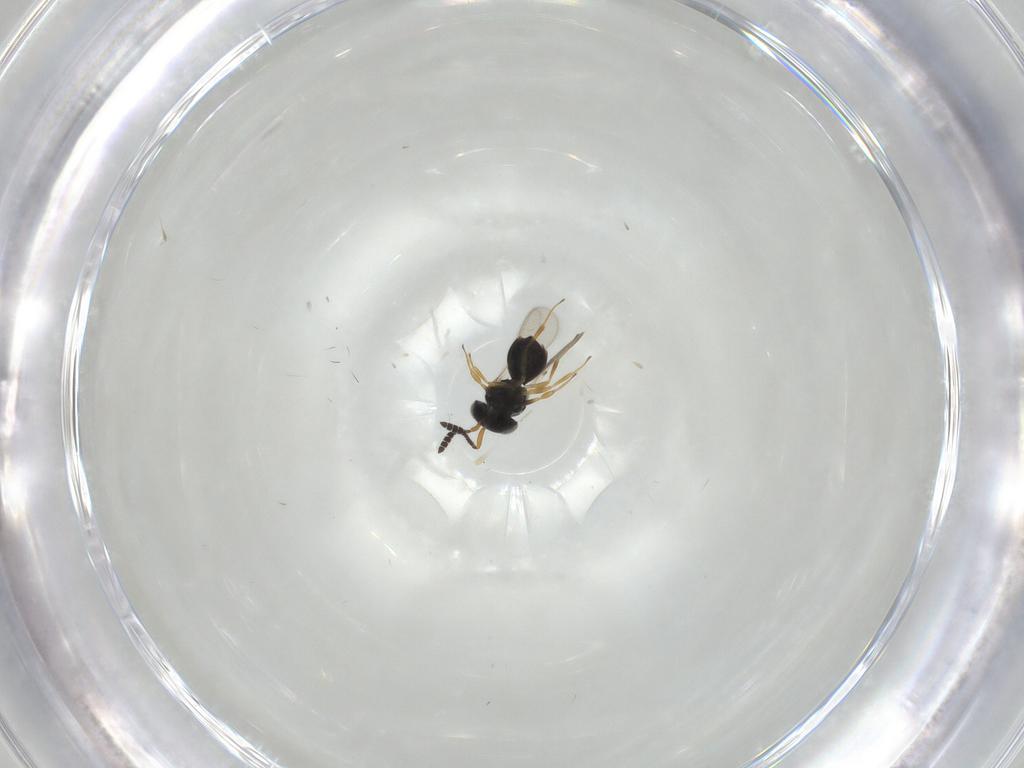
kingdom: Animalia
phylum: Arthropoda
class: Insecta
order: Hymenoptera
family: Scelionidae
